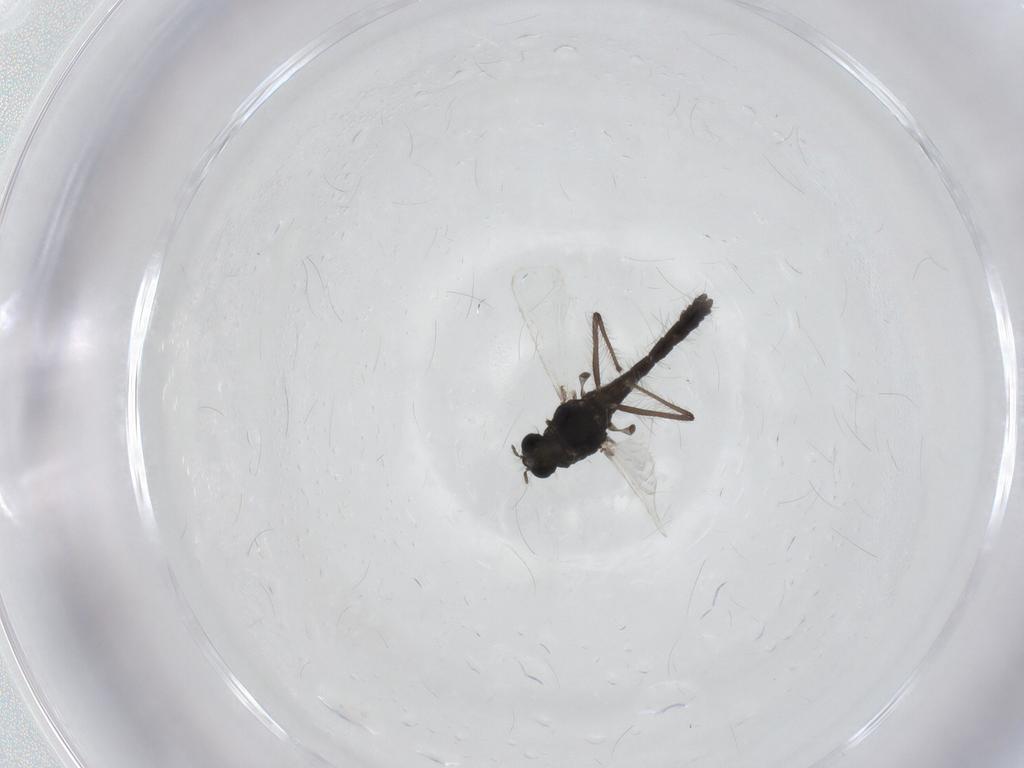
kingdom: Animalia
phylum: Arthropoda
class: Insecta
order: Diptera
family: Chironomidae
